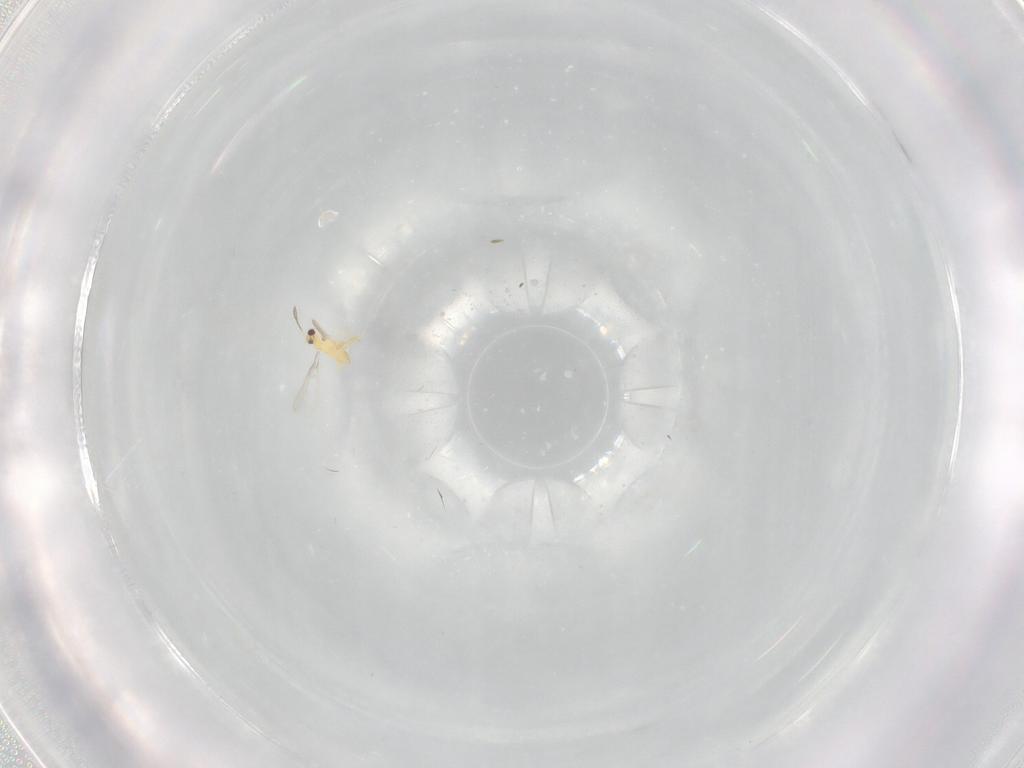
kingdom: Animalia
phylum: Arthropoda
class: Insecta
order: Hymenoptera
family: Mymaridae
